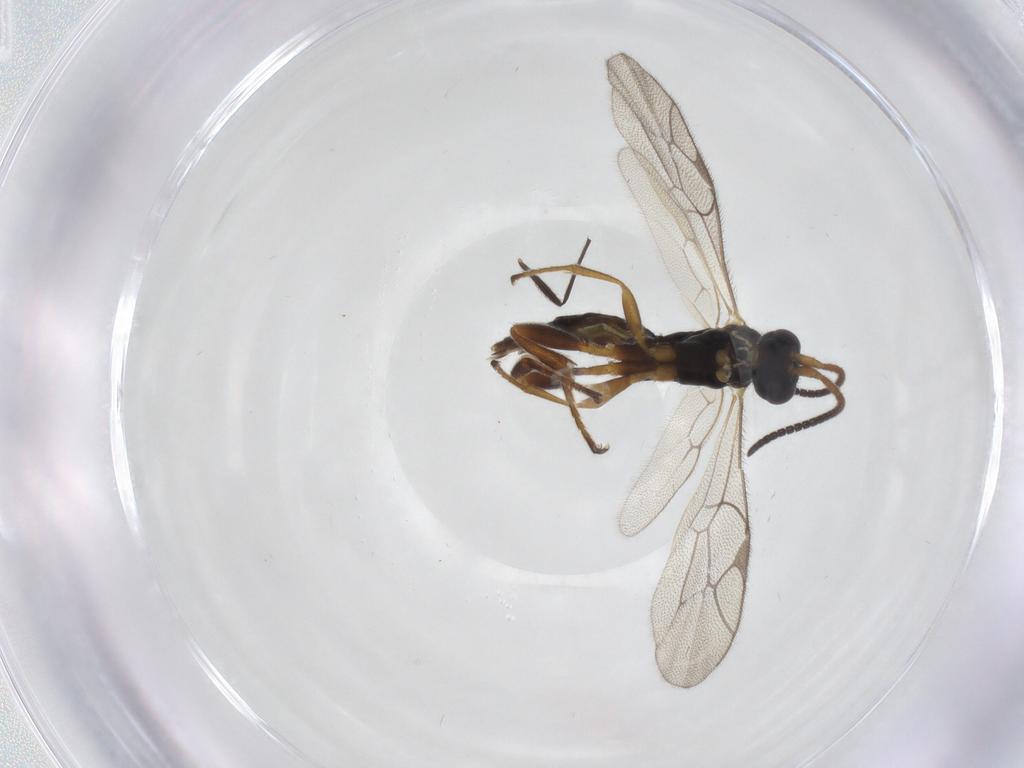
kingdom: Animalia
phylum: Arthropoda
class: Insecta
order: Hymenoptera
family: Ichneumonidae
